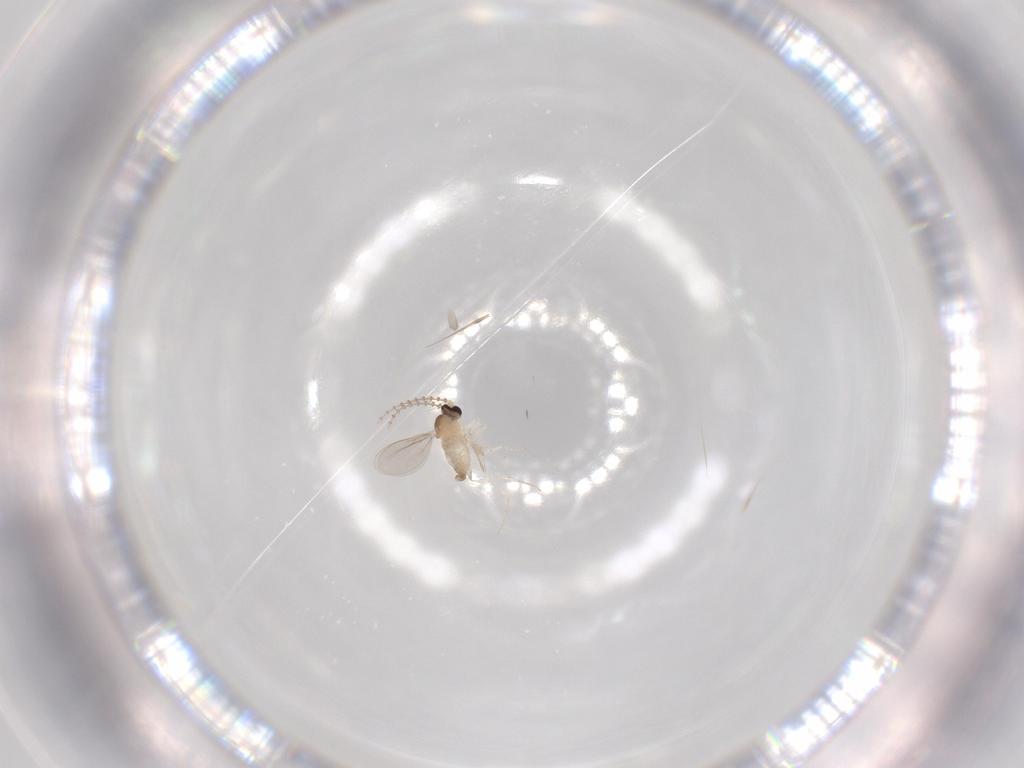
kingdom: Animalia
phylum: Arthropoda
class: Insecta
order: Diptera
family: Cecidomyiidae
